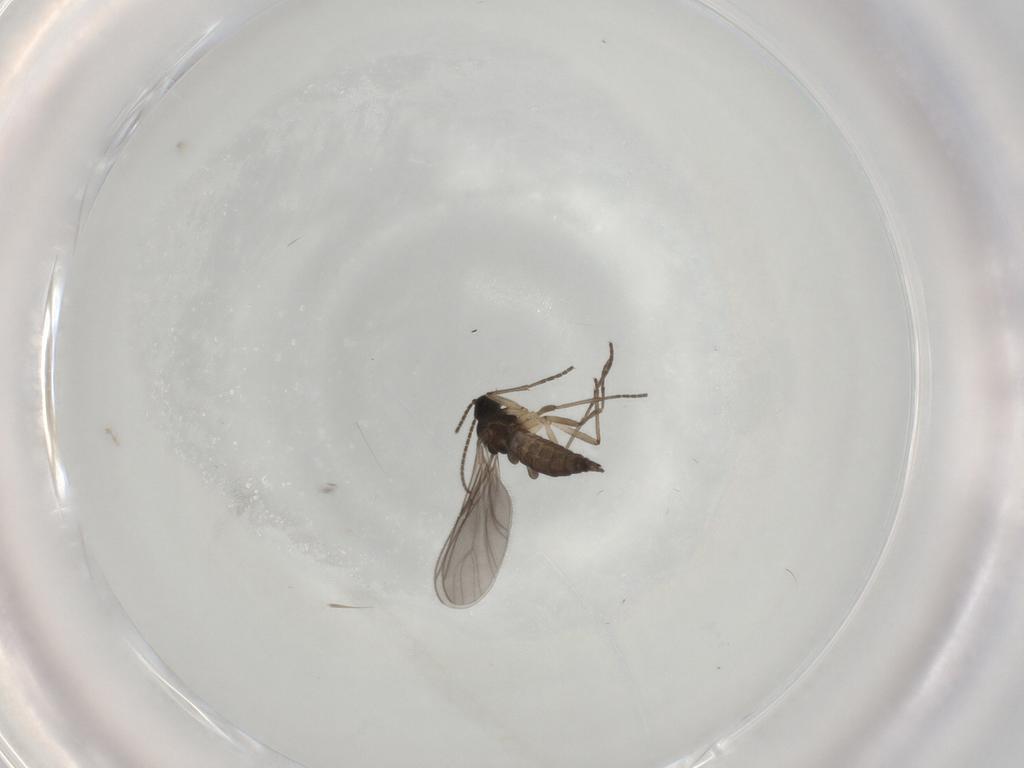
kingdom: Animalia
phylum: Arthropoda
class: Insecta
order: Diptera
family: Sciaridae
